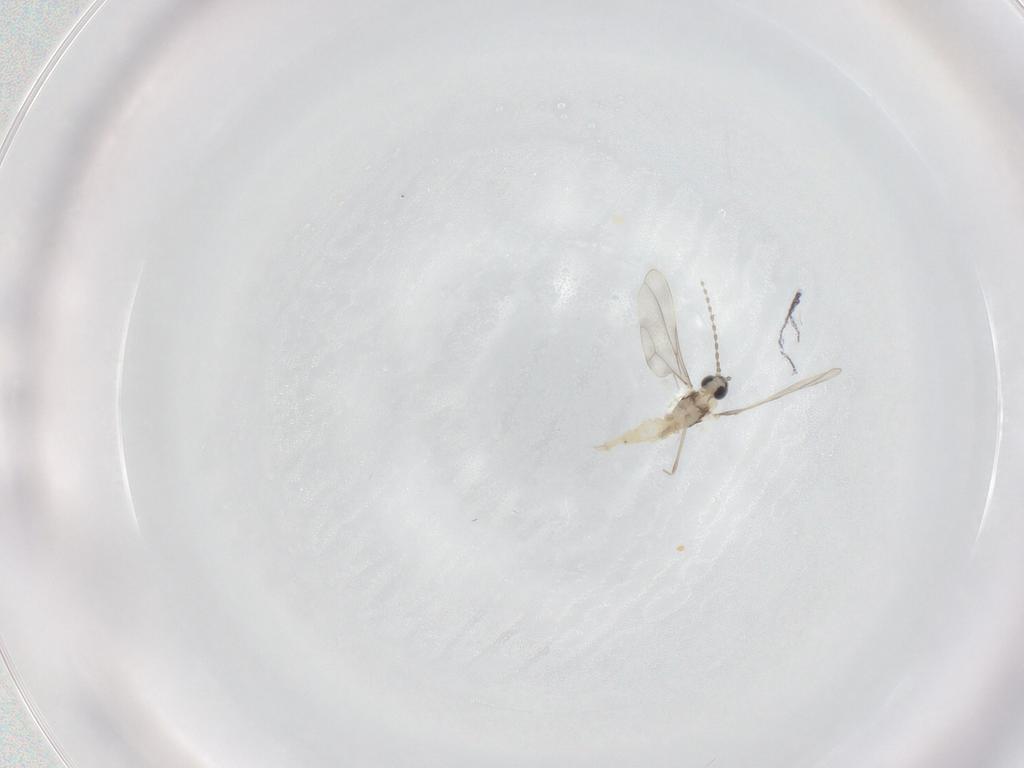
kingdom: Animalia
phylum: Arthropoda
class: Insecta
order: Diptera
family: Cecidomyiidae
